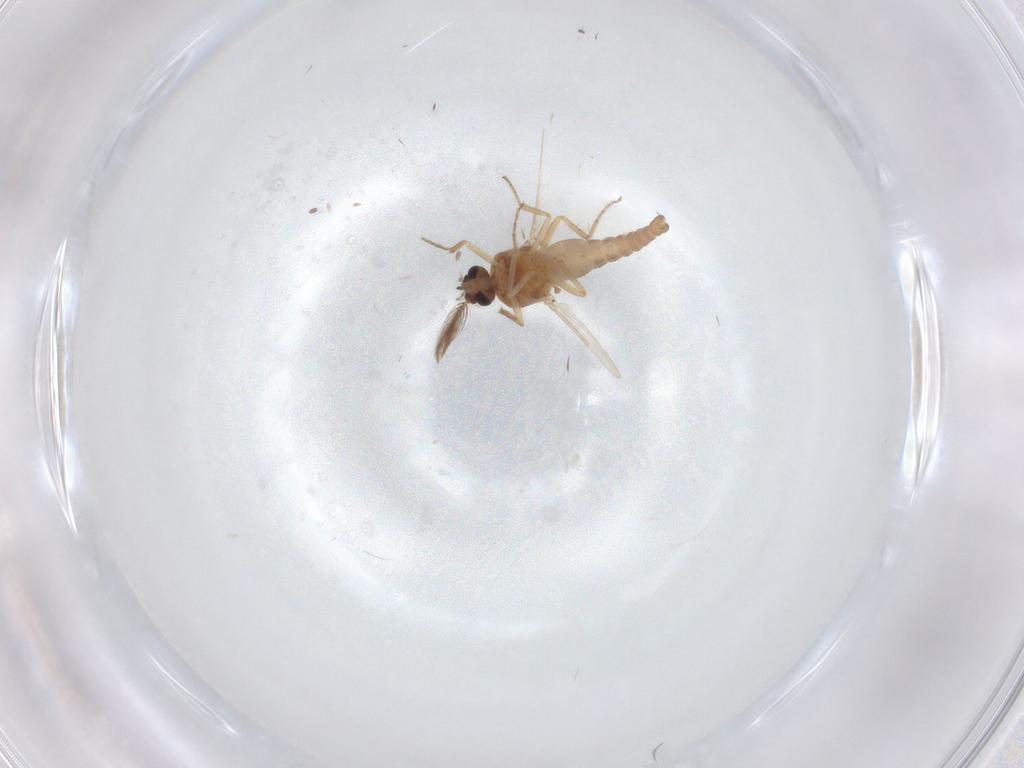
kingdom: Animalia
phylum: Arthropoda
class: Insecta
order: Diptera
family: Ceratopogonidae
